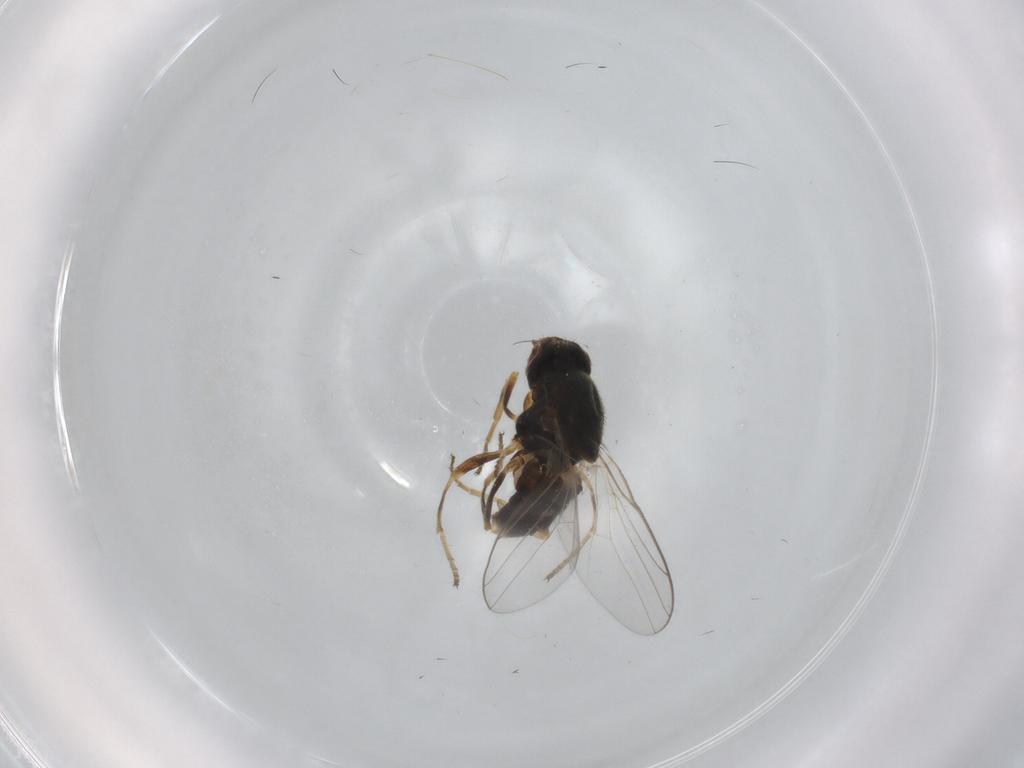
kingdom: Animalia
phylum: Arthropoda
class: Insecta
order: Diptera
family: Chloropidae
